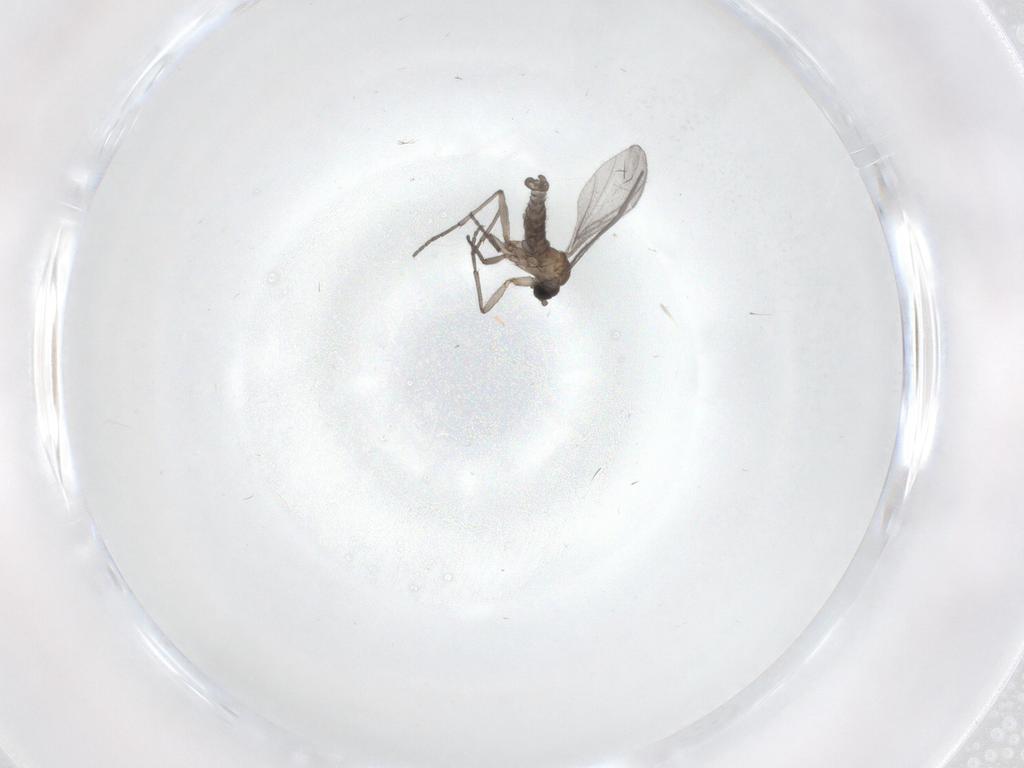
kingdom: Animalia
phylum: Arthropoda
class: Insecta
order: Diptera
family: Sciaridae
